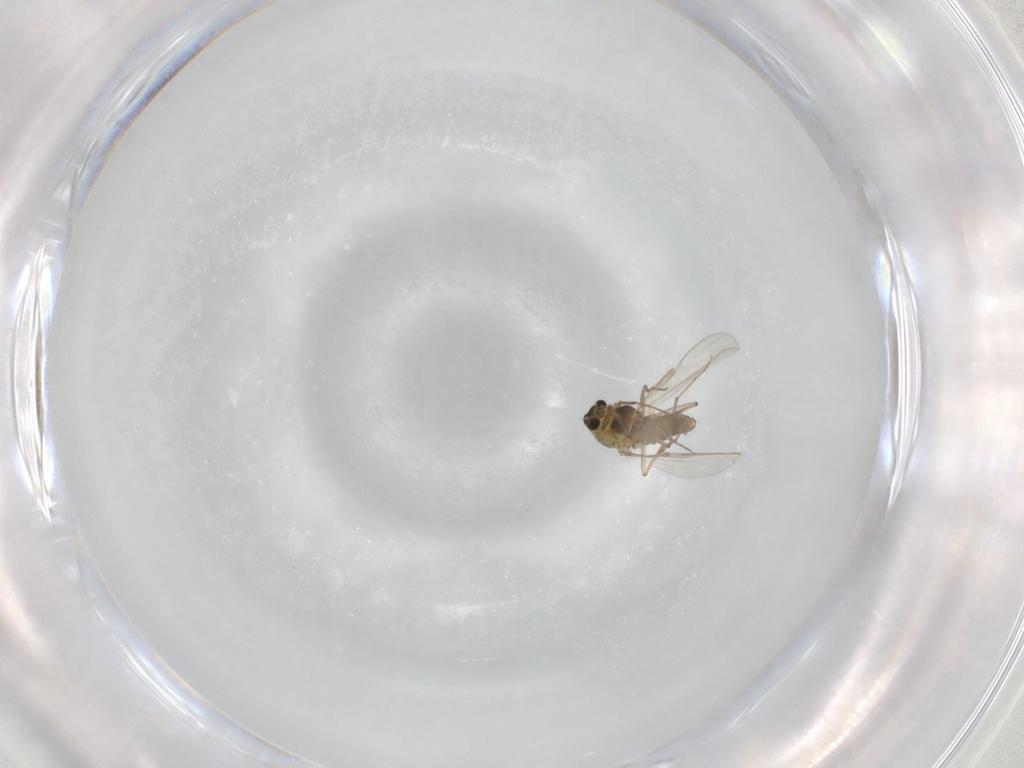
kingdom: Animalia
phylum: Arthropoda
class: Insecta
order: Diptera
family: Chironomidae
